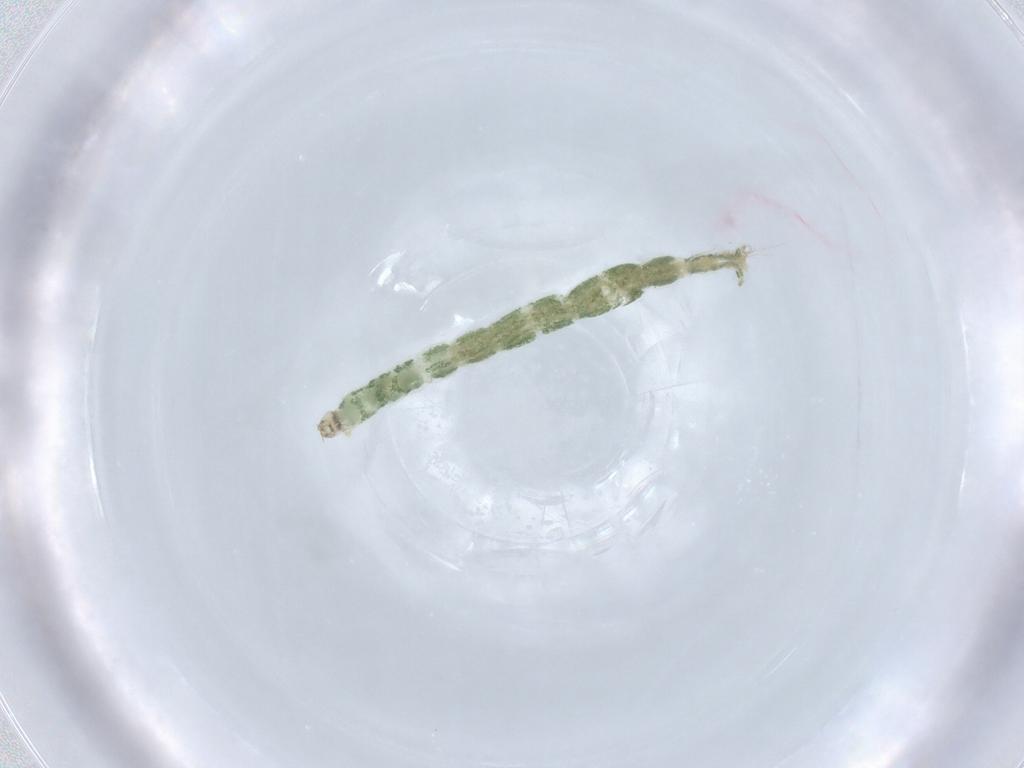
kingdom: Animalia
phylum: Arthropoda
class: Insecta
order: Diptera
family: Chironomidae
